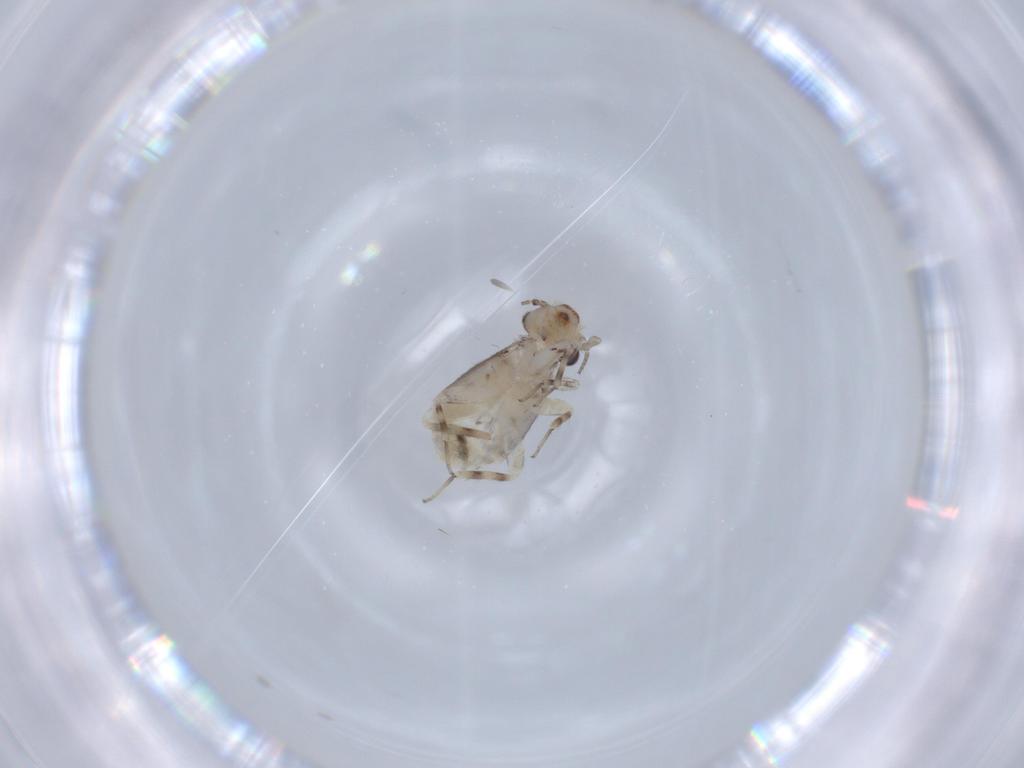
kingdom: Animalia
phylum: Arthropoda
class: Insecta
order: Psocodea
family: Lepidopsocidae
